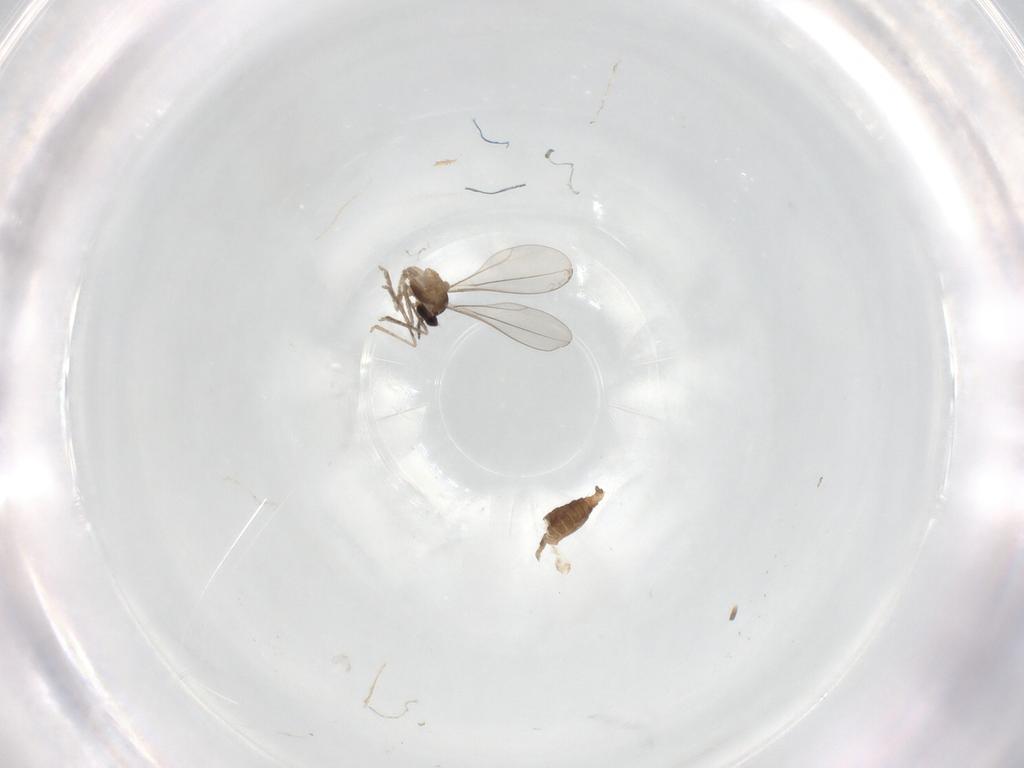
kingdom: Animalia
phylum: Arthropoda
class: Insecta
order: Diptera
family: Cecidomyiidae
